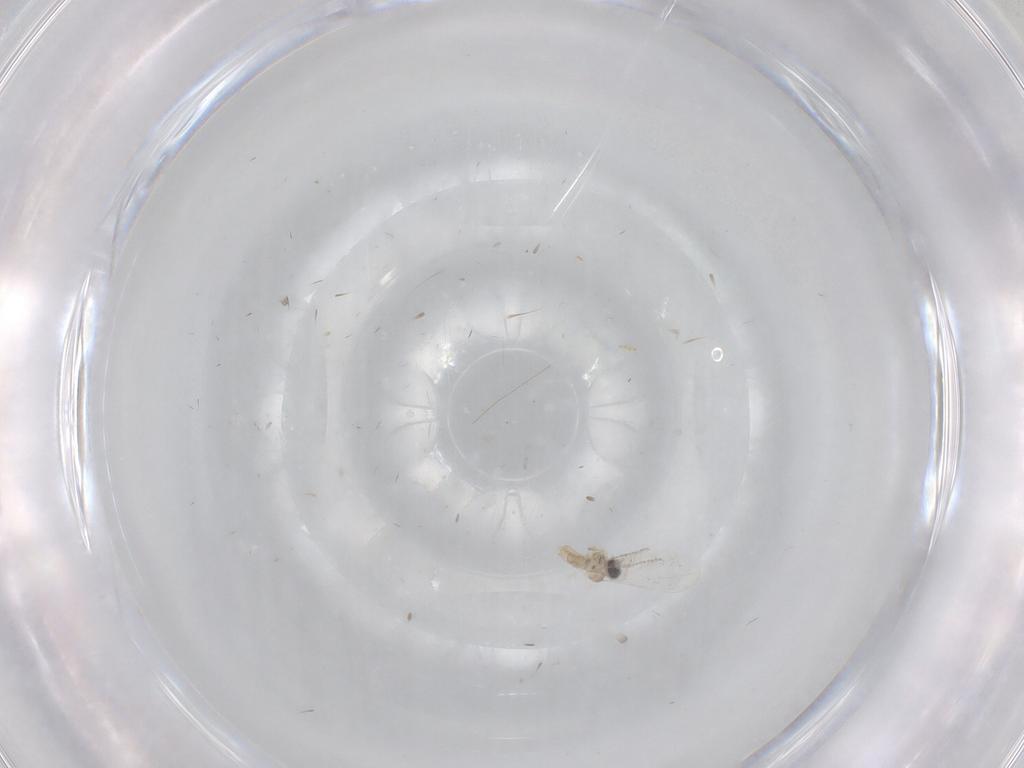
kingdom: Animalia
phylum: Arthropoda
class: Insecta
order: Diptera
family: Cecidomyiidae
